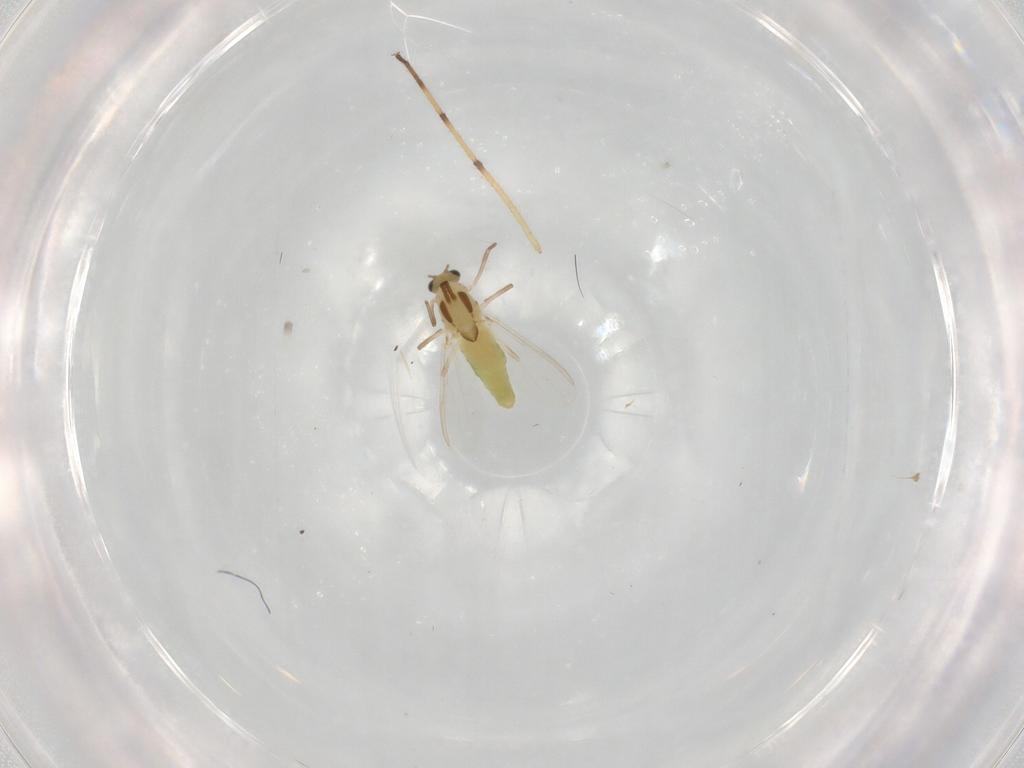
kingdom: Animalia
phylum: Arthropoda
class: Insecta
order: Diptera
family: Chironomidae
